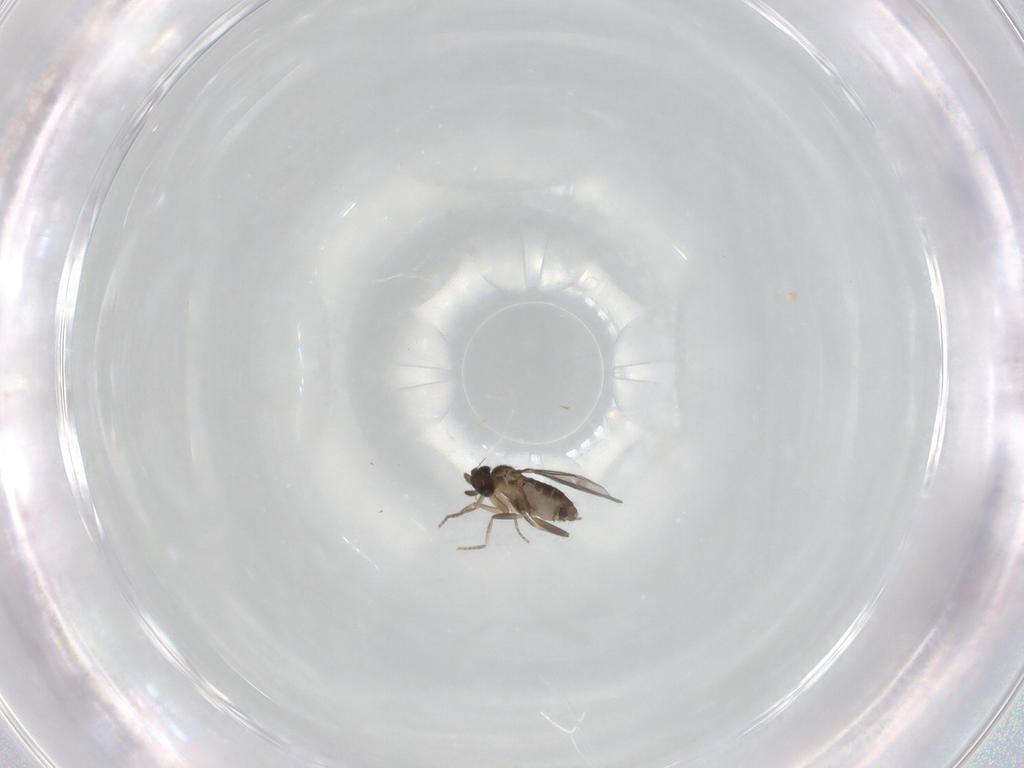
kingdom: Animalia
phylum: Arthropoda
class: Insecta
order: Diptera
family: Cecidomyiidae
